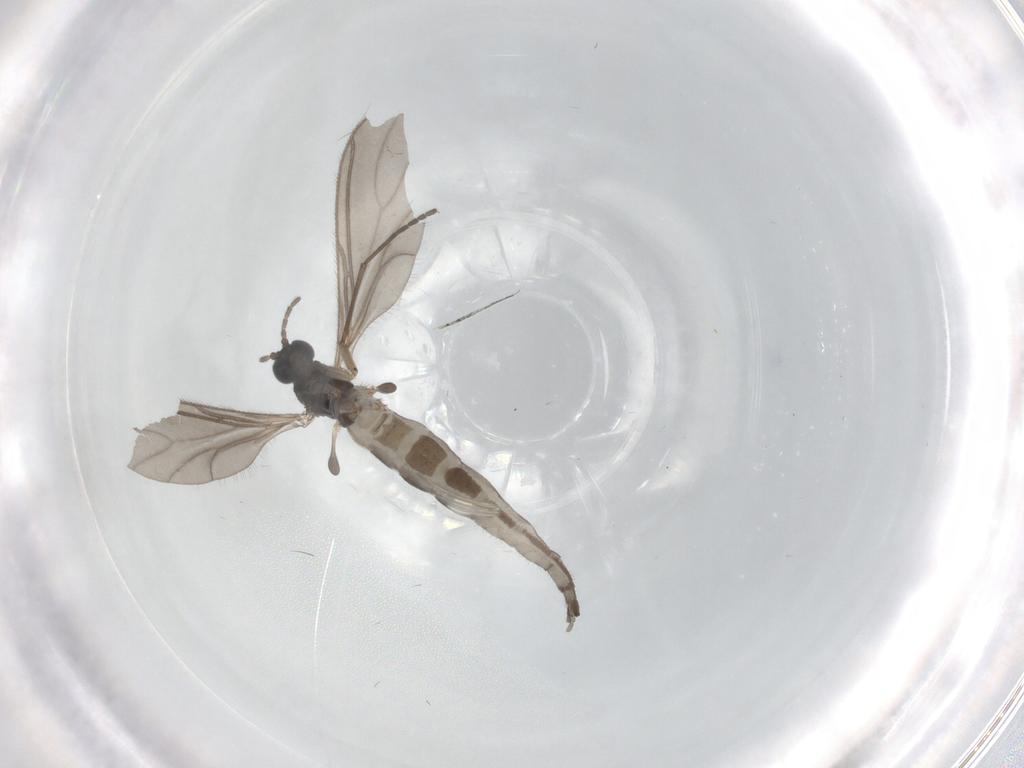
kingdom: Animalia
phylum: Arthropoda
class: Insecta
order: Diptera
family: Sciaridae
